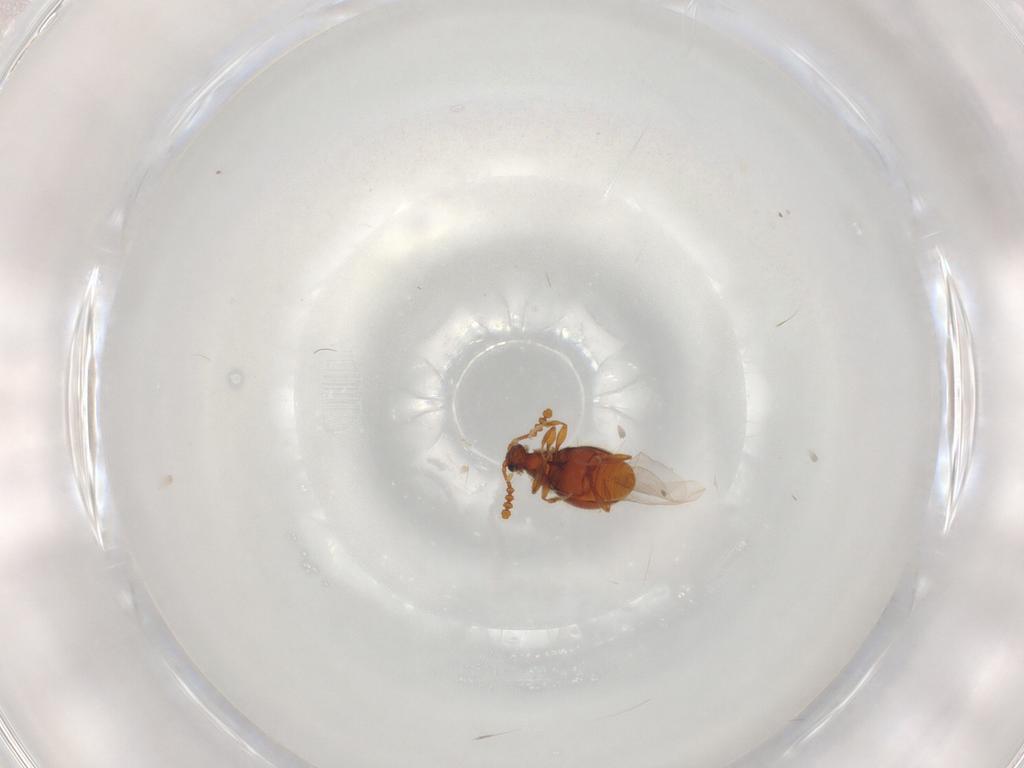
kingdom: Animalia
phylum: Arthropoda
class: Insecta
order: Coleoptera
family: Staphylinidae
